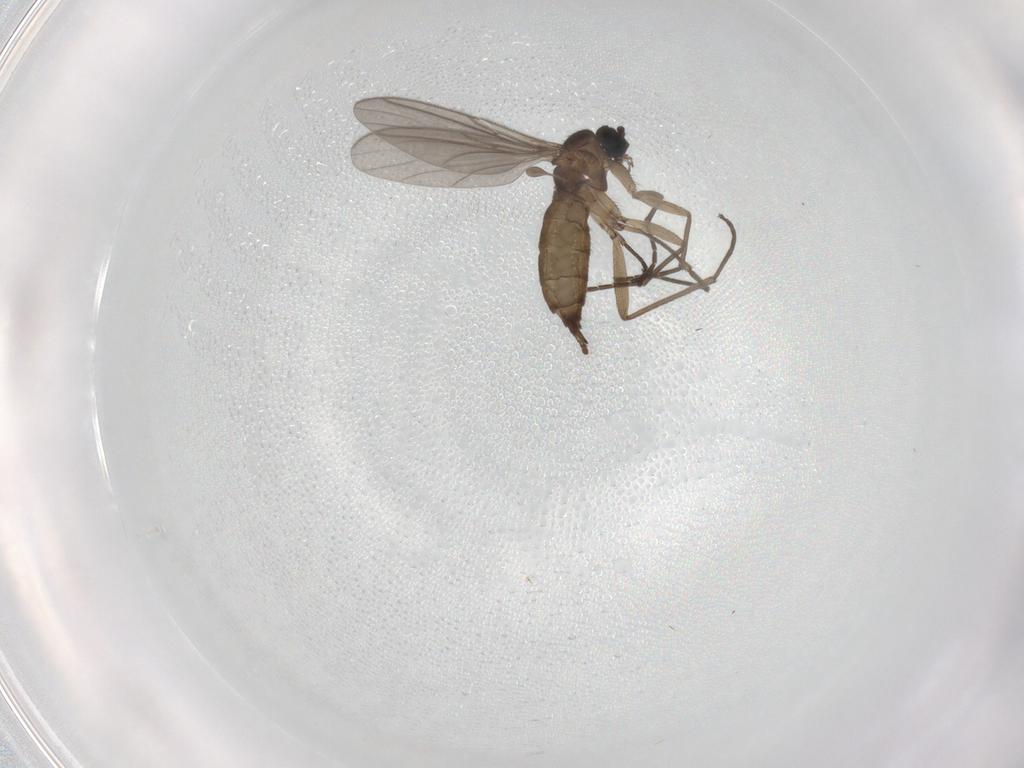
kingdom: Animalia
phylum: Arthropoda
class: Insecta
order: Diptera
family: Sciaridae
